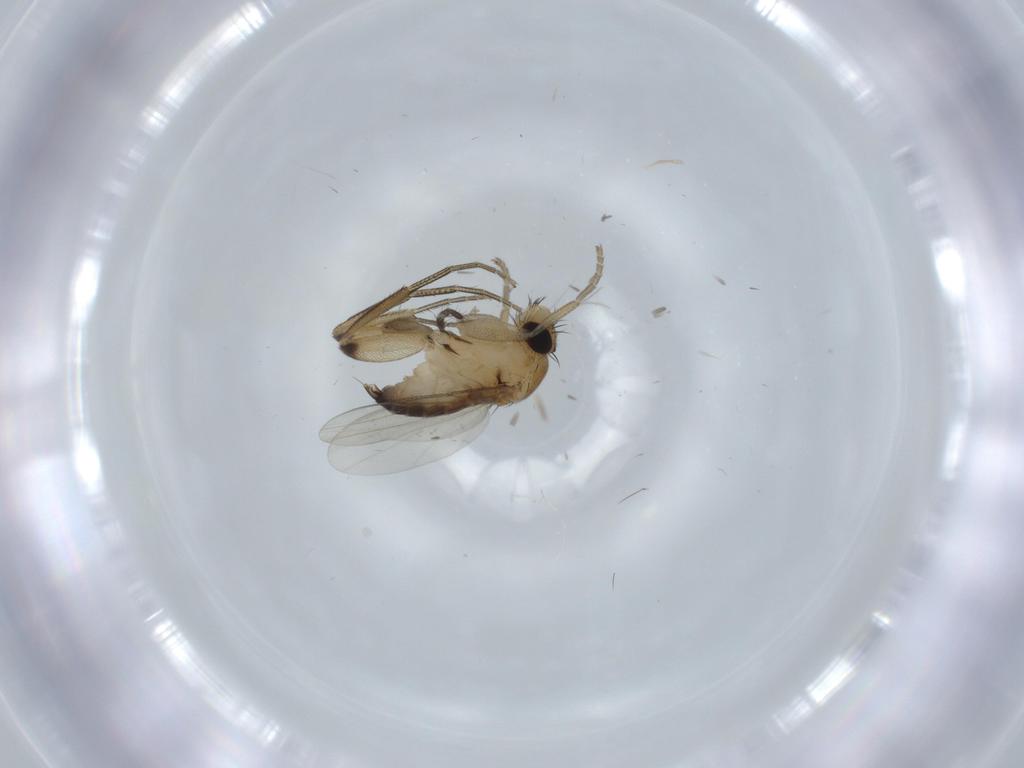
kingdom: Animalia
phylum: Arthropoda
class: Insecta
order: Diptera
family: Phoridae
